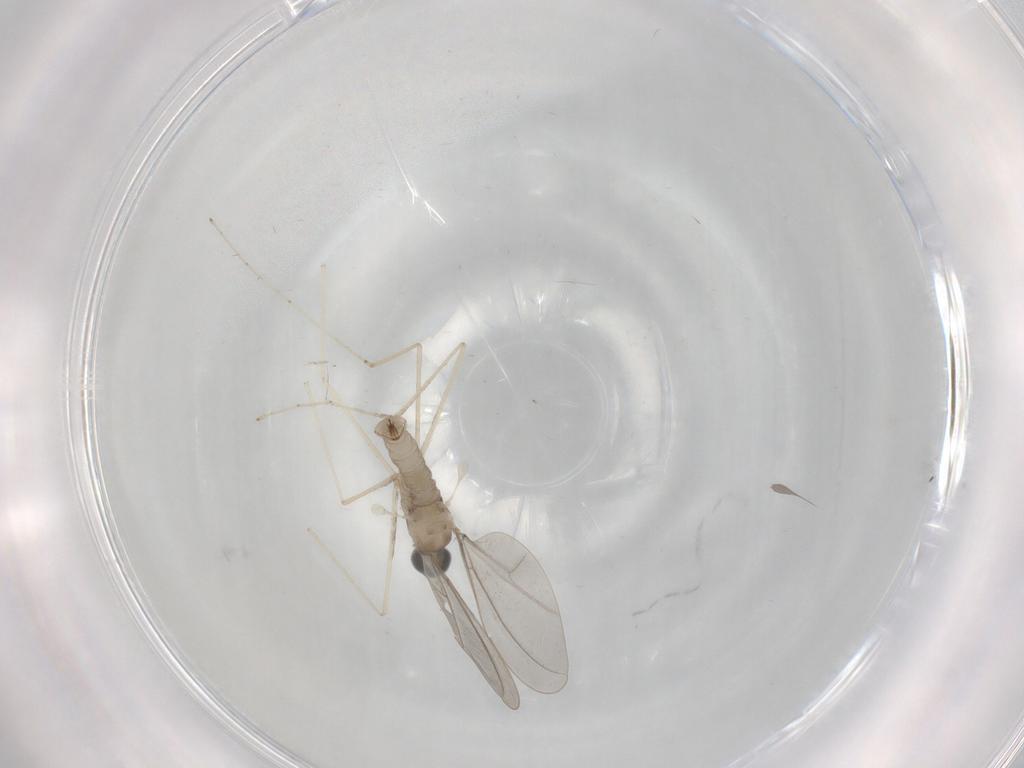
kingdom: Animalia
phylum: Arthropoda
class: Insecta
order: Diptera
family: Cecidomyiidae
